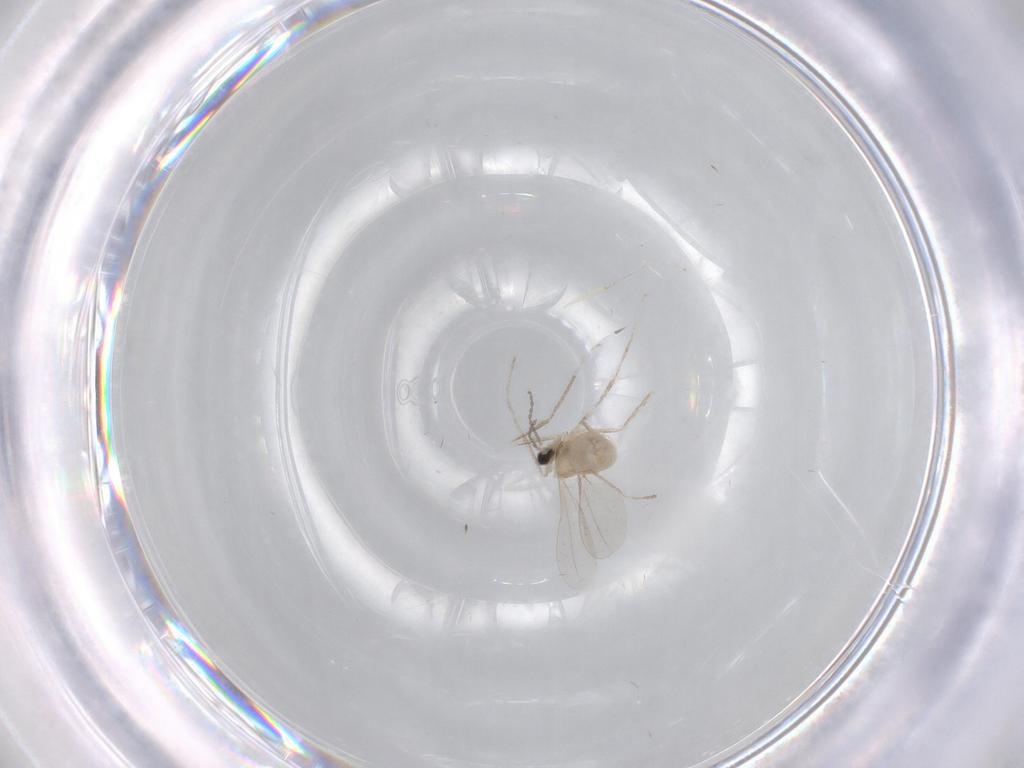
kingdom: Animalia
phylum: Arthropoda
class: Insecta
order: Diptera
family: Cecidomyiidae
